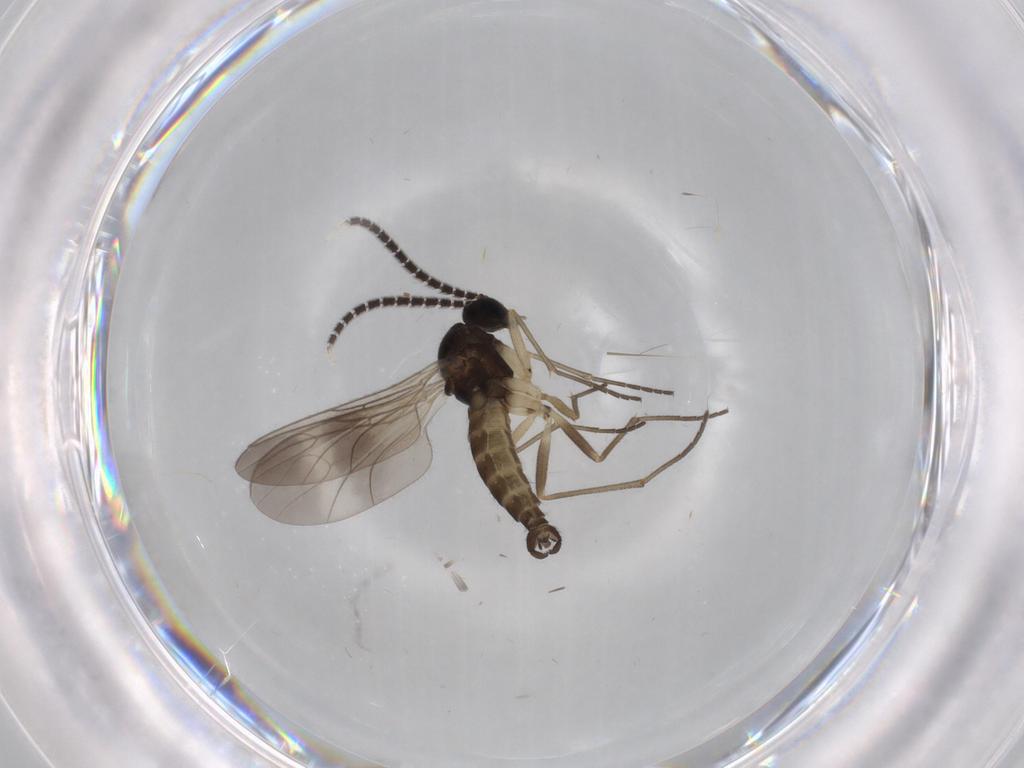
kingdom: Animalia
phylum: Arthropoda
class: Insecta
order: Diptera
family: Sciaridae
